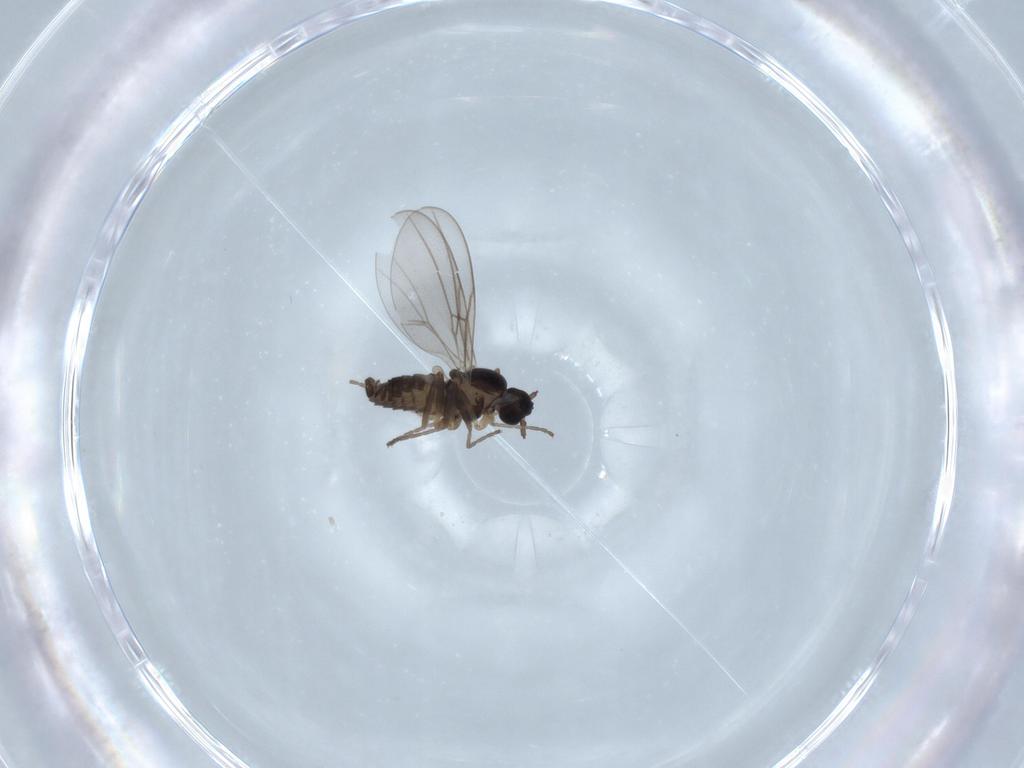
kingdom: Animalia
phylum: Arthropoda
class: Insecta
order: Diptera
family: Cecidomyiidae
